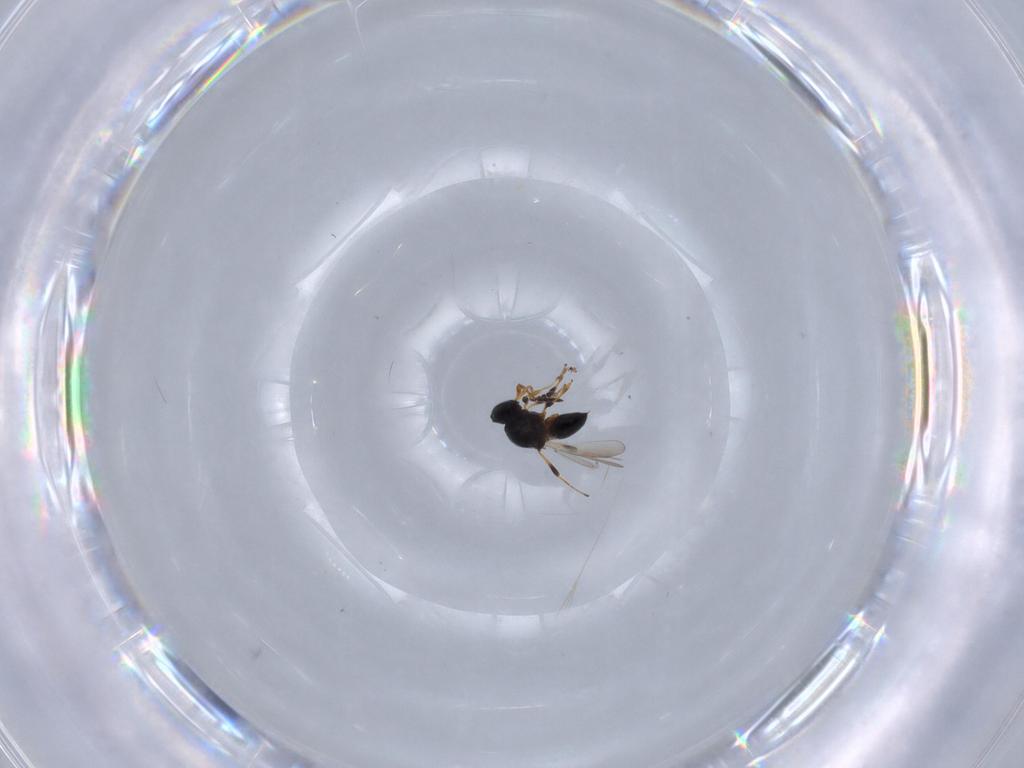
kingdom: Animalia
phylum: Arthropoda
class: Insecta
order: Hymenoptera
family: Platygastridae
